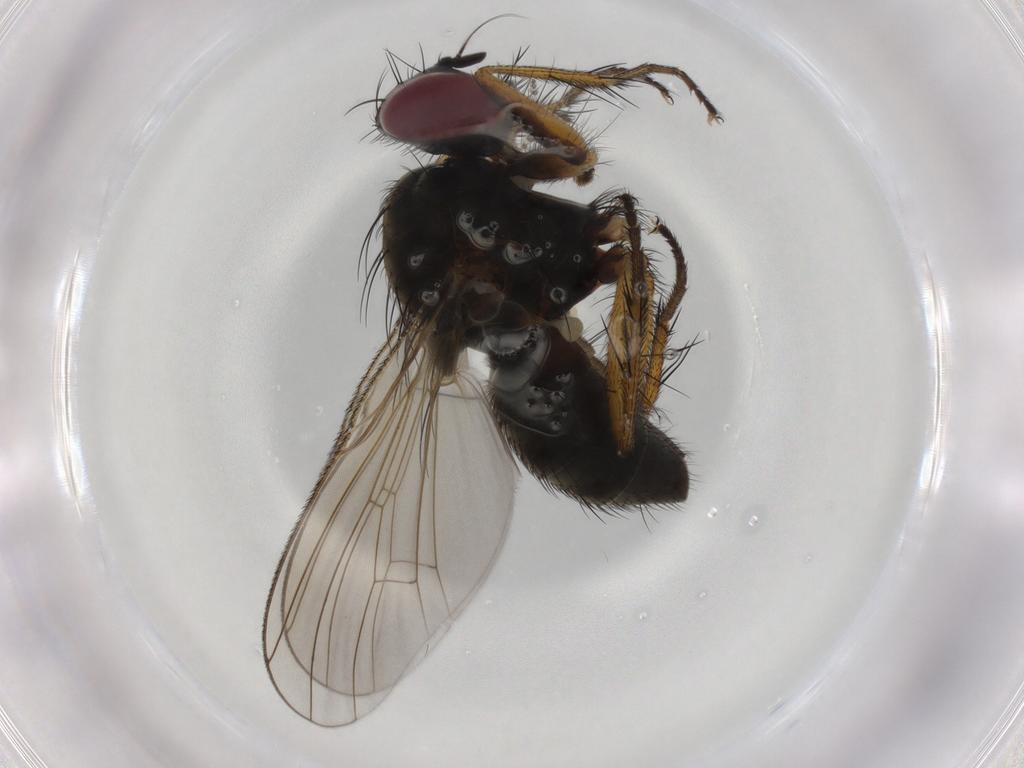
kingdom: Animalia
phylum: Arthropoda
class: Insecta
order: Diptera
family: Muscidae
